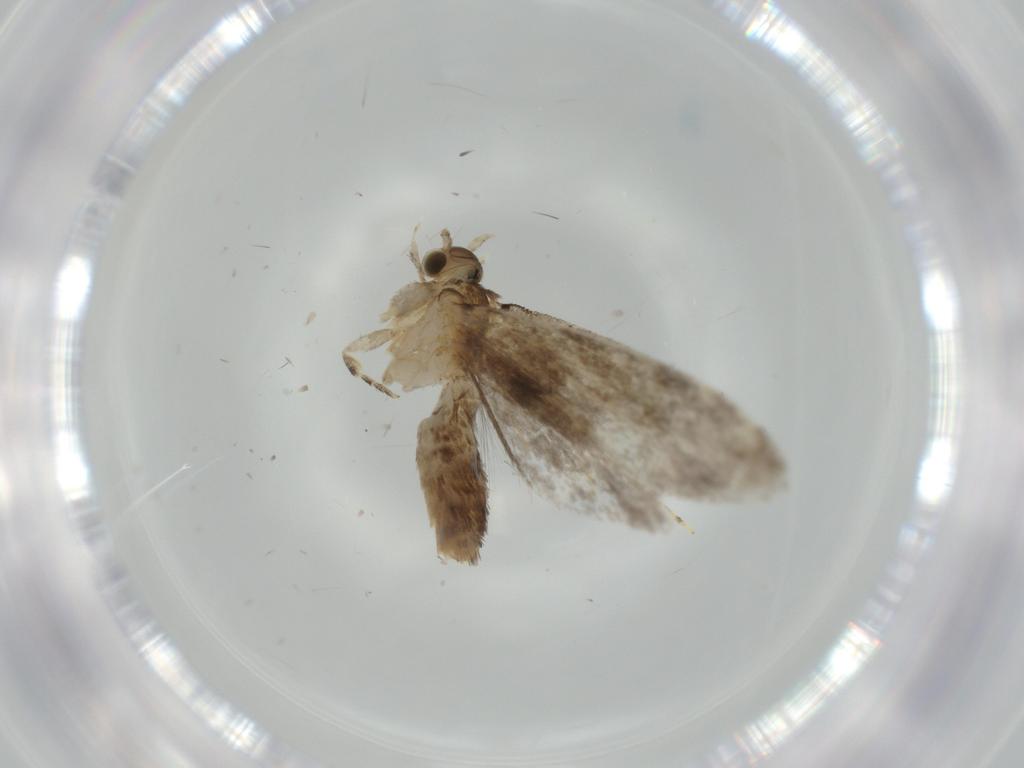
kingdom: Animalia
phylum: Arthropoda
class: Insecta
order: Lepidoptera
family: Tineidae
